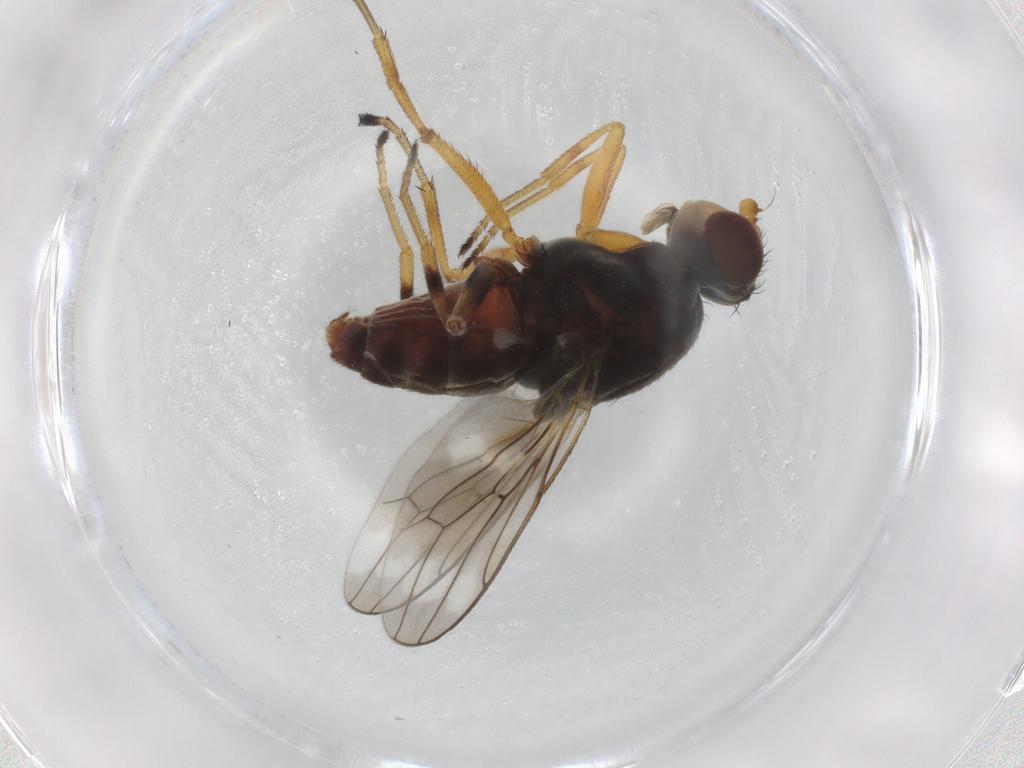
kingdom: Animalia
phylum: Arthropoda
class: Insecta
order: Diptera
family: Chloropidae
